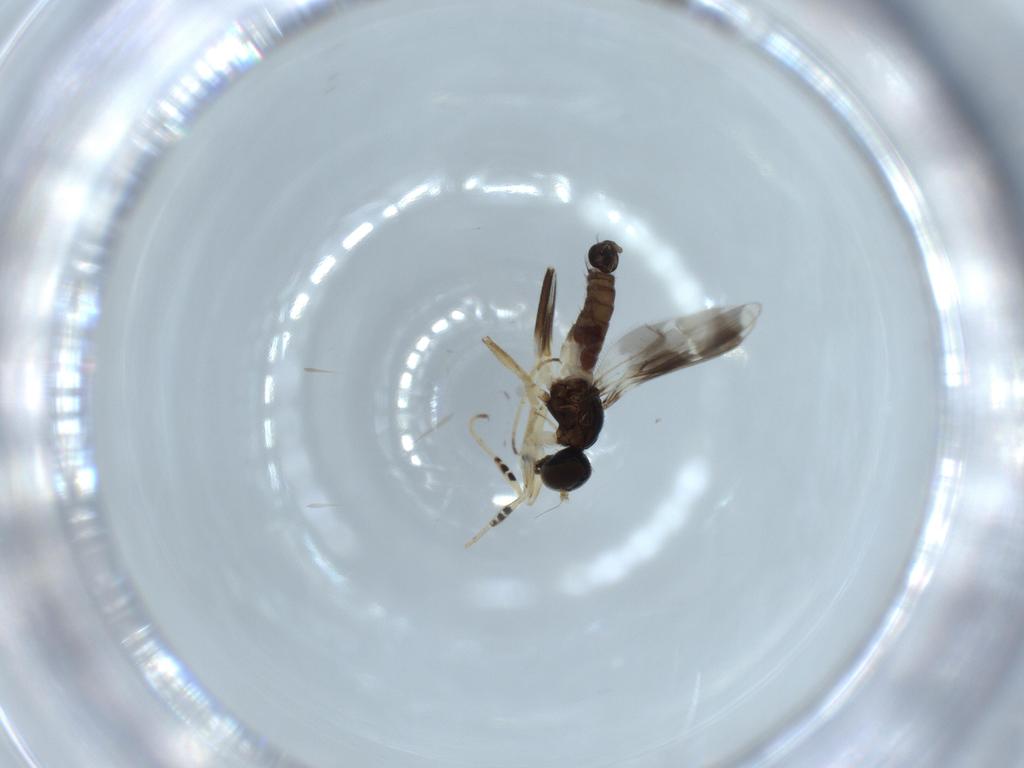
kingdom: Animalia
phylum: Arthropoda
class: Insecta
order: Diptera
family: Hybotidae
